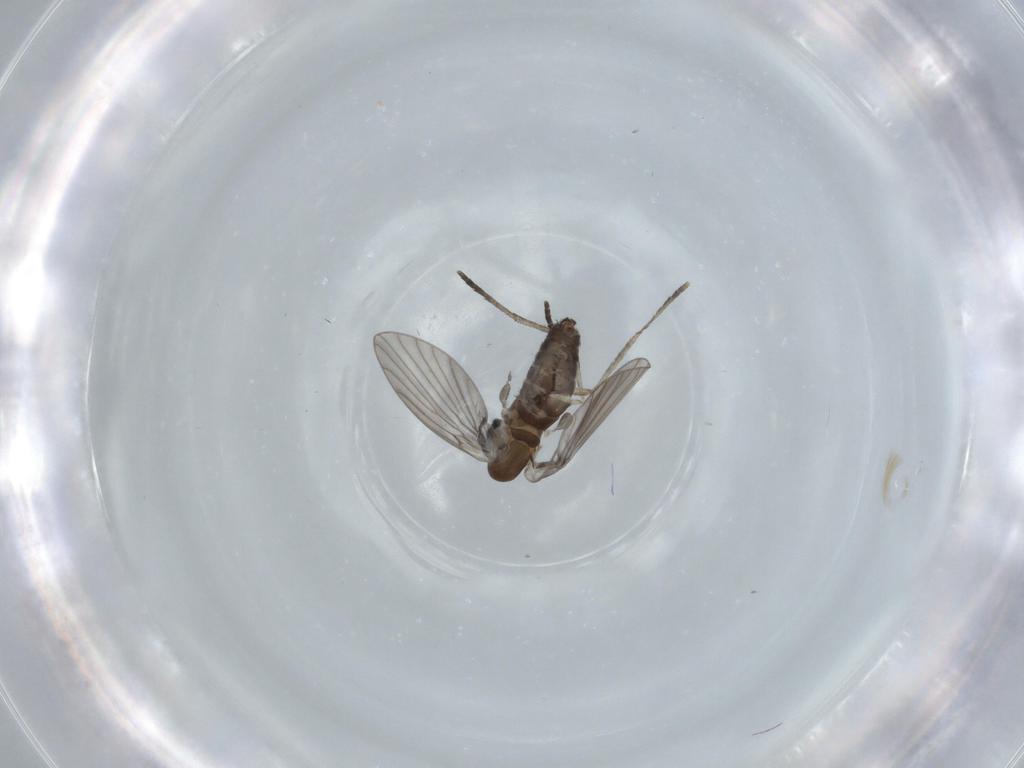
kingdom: Animalia
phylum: Arthropoda
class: Insecta
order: Diptera
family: Psychodidae
